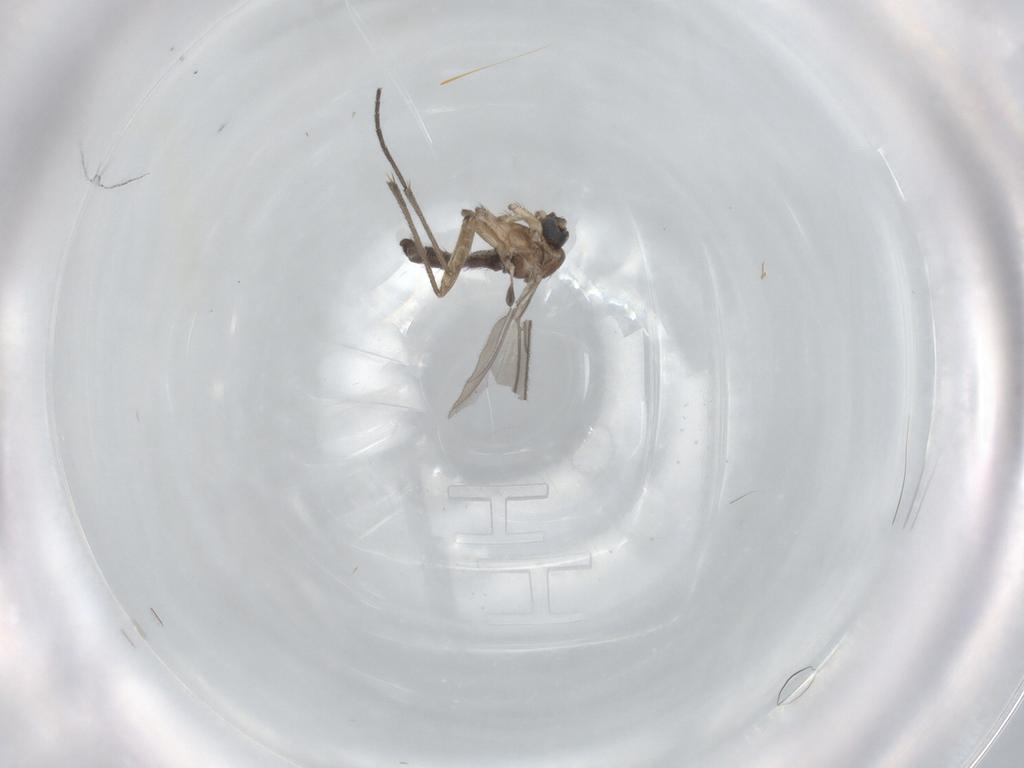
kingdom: Animalia
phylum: Arthropoda
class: Insecta
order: Diptera
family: Sciaridae
